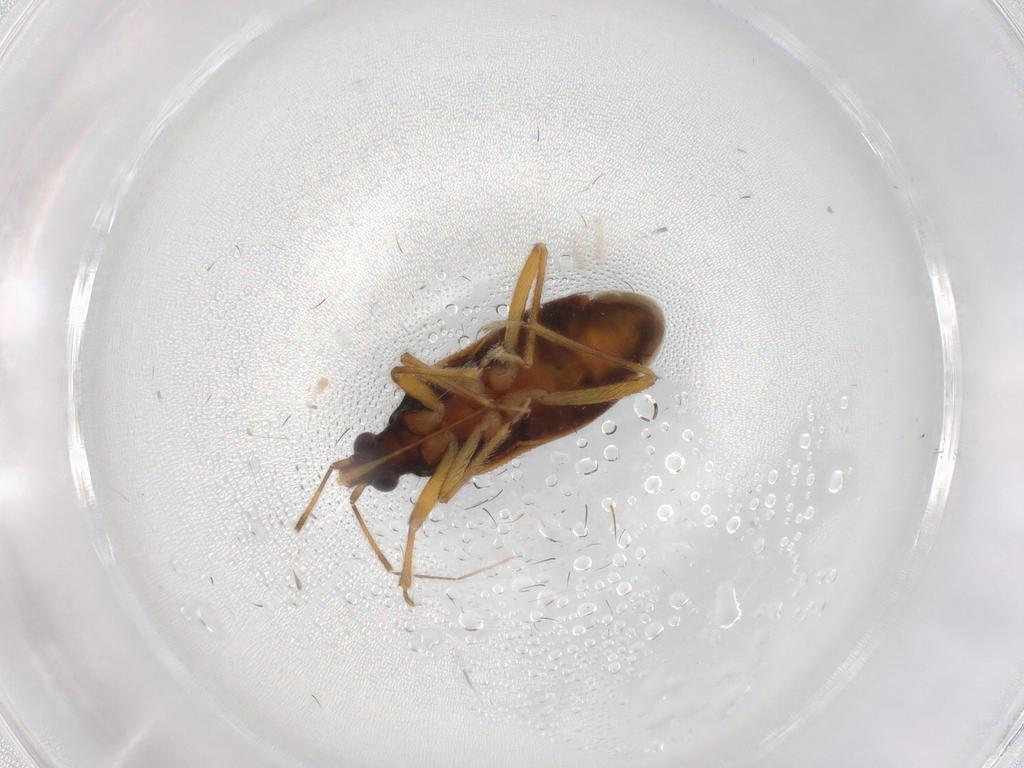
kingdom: Animalia
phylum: Arthropoda
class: Insecta
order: Hemiptera
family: Anthocoridae
